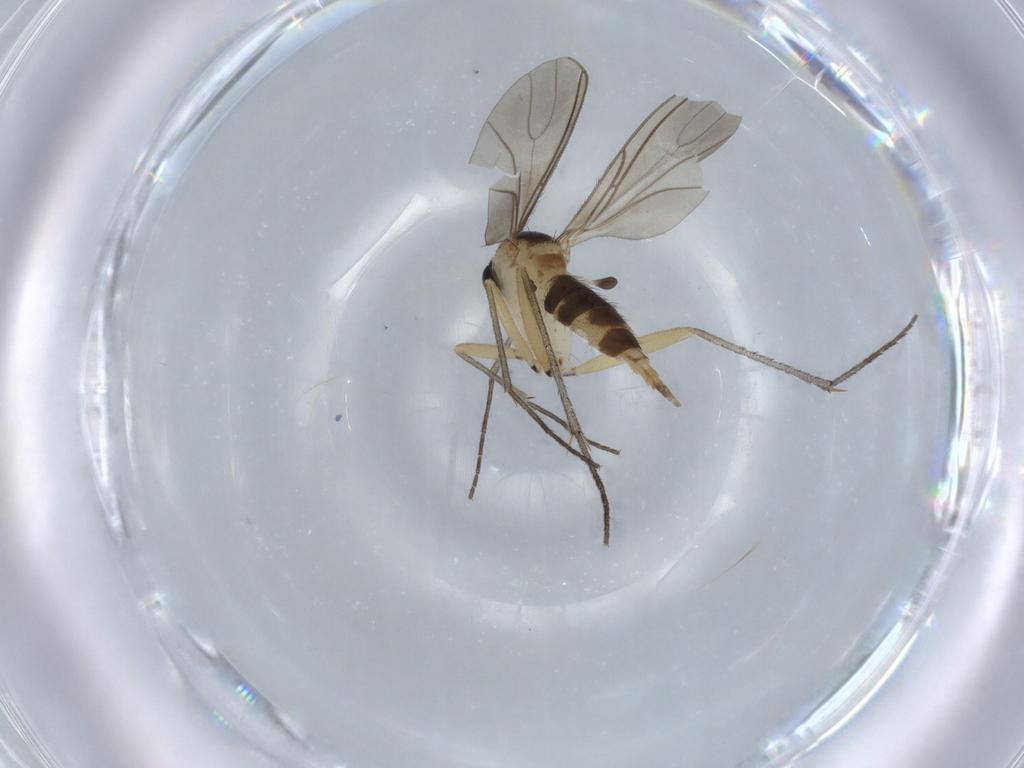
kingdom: Animalia
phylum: Arthropoda
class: Insecta
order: Diptera
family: Sciaridae
